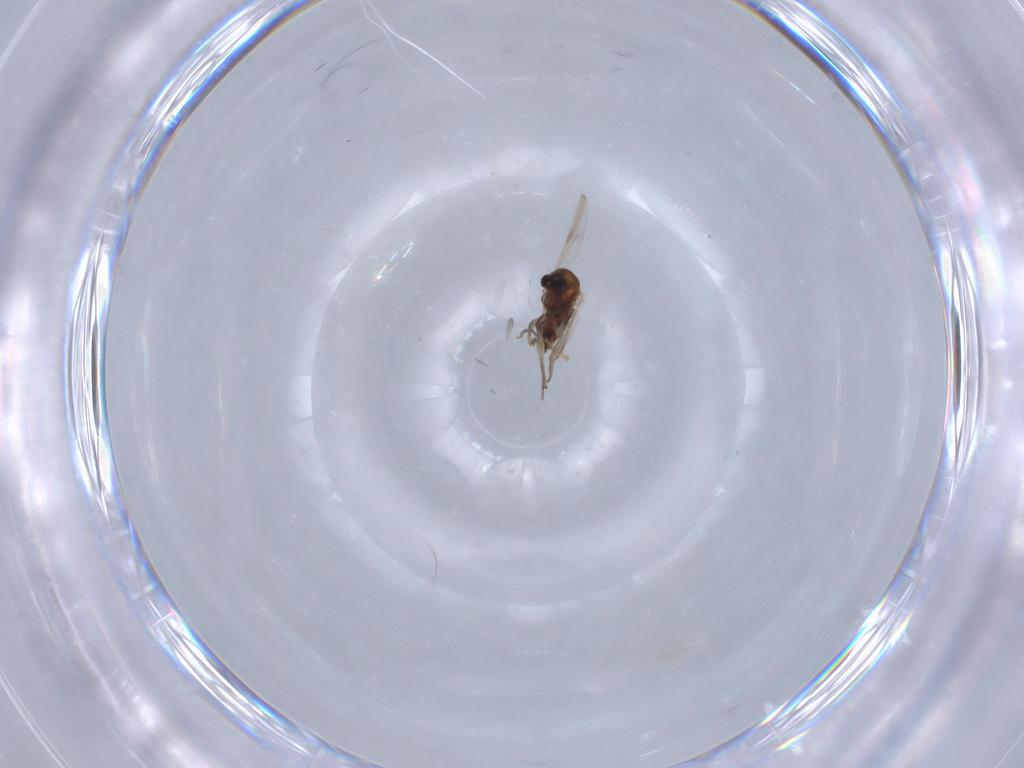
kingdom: Animalia
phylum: Arthropoda
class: Insecta
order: Diptera
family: Chironomidae
